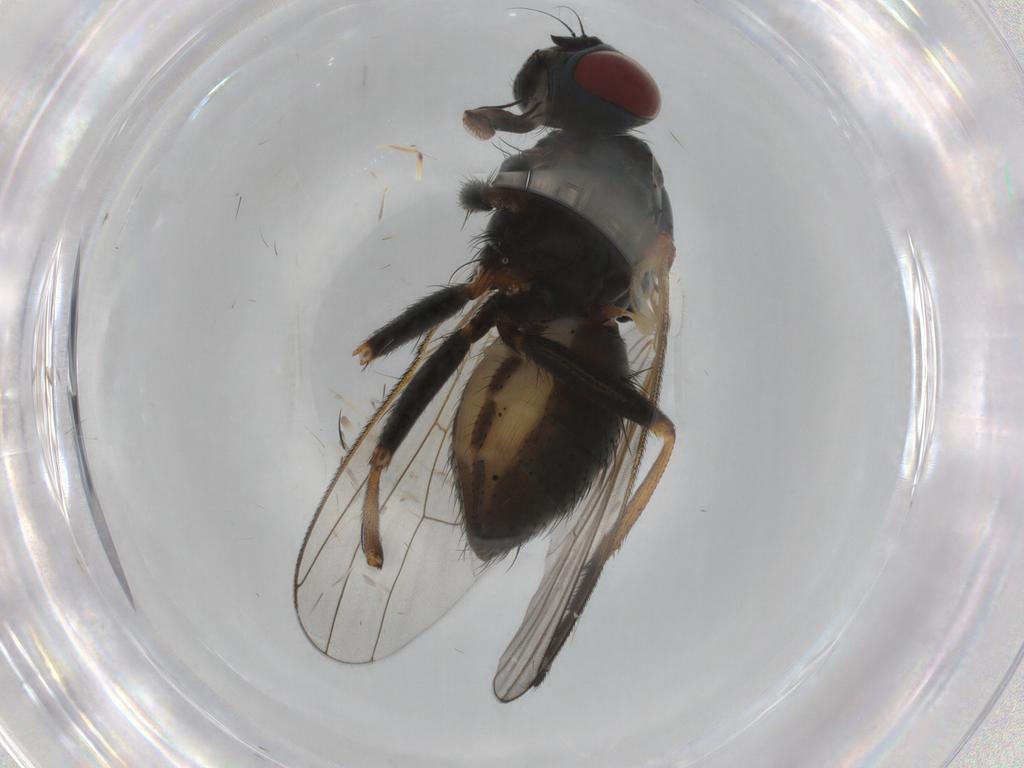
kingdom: Animalia
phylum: Arthropoda
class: Insecta
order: Diptera
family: Muscidae
